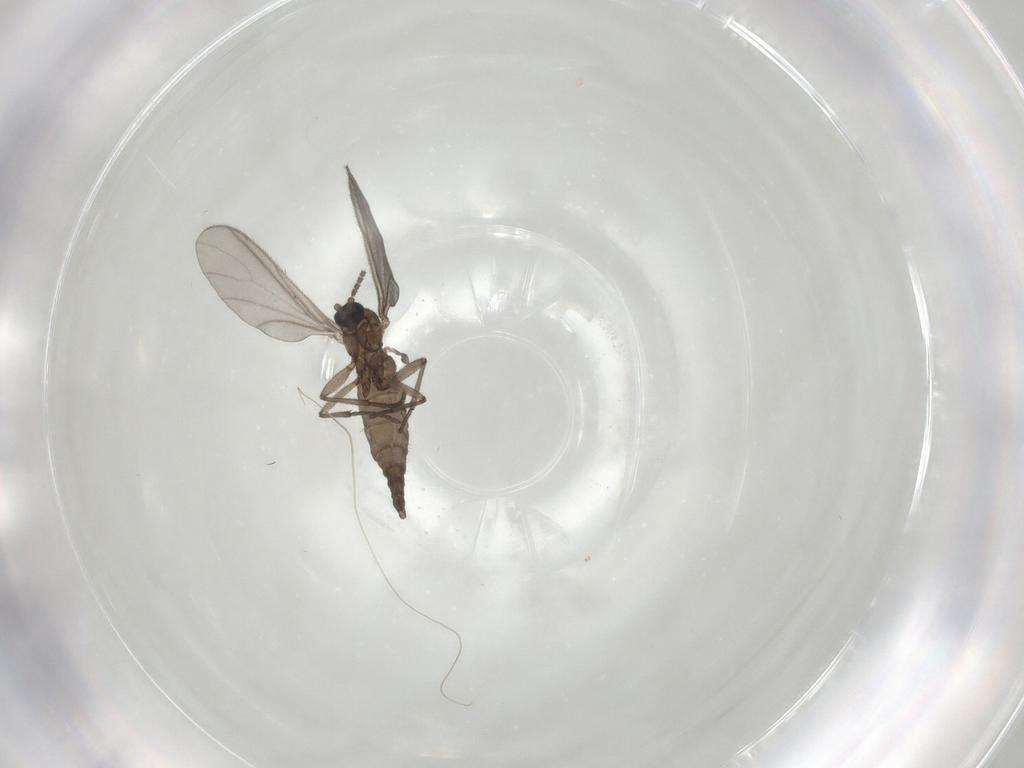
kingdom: Animalia
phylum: Arthropoda
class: Insecta
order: Diptera
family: Sciaridae
